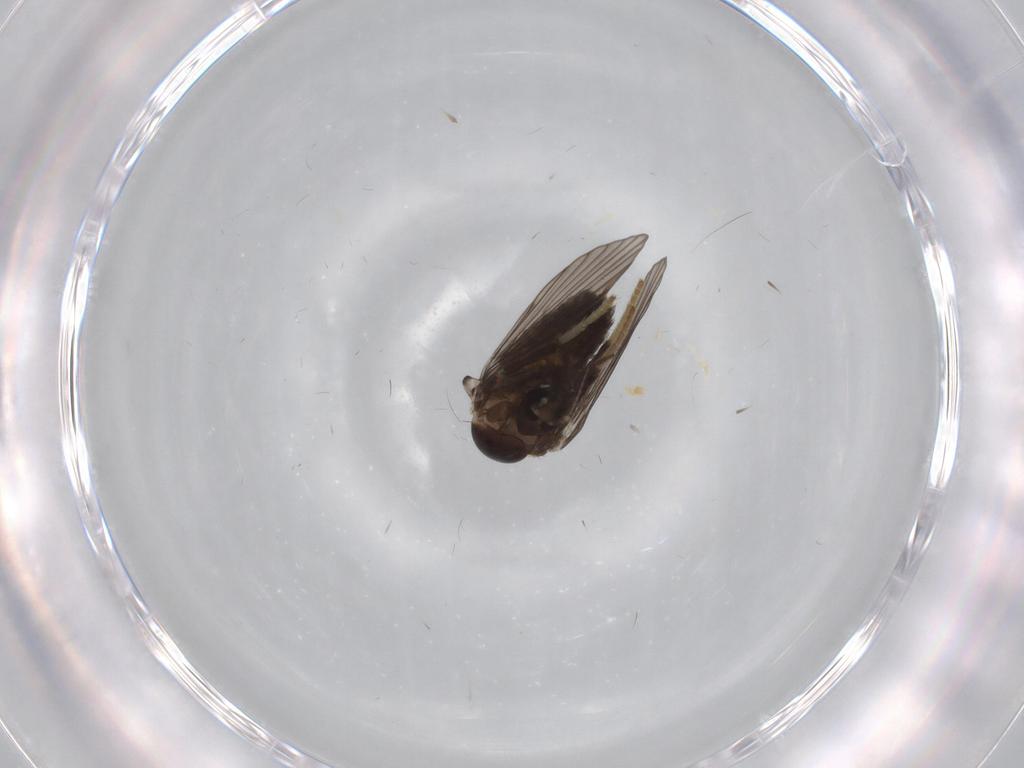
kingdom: Animalia
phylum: Arthropoda
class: Insecta
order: Diptera
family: Psychodidae
